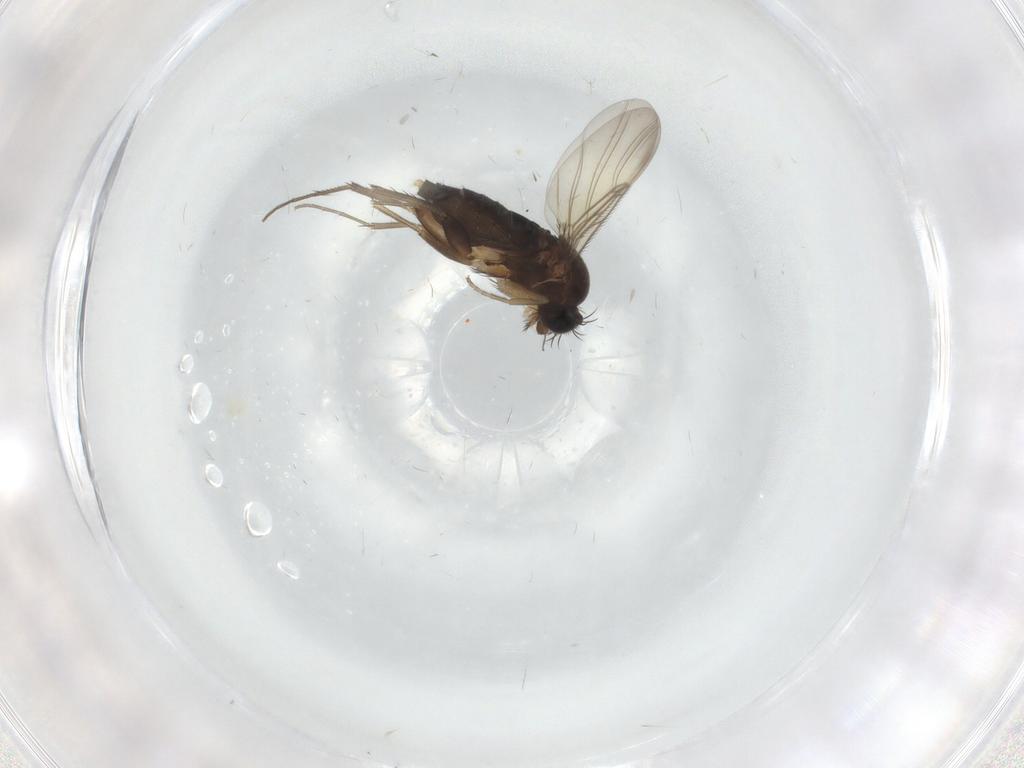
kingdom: Animalia
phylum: Arthropoda
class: Insecta
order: Diptera
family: Phoridae
